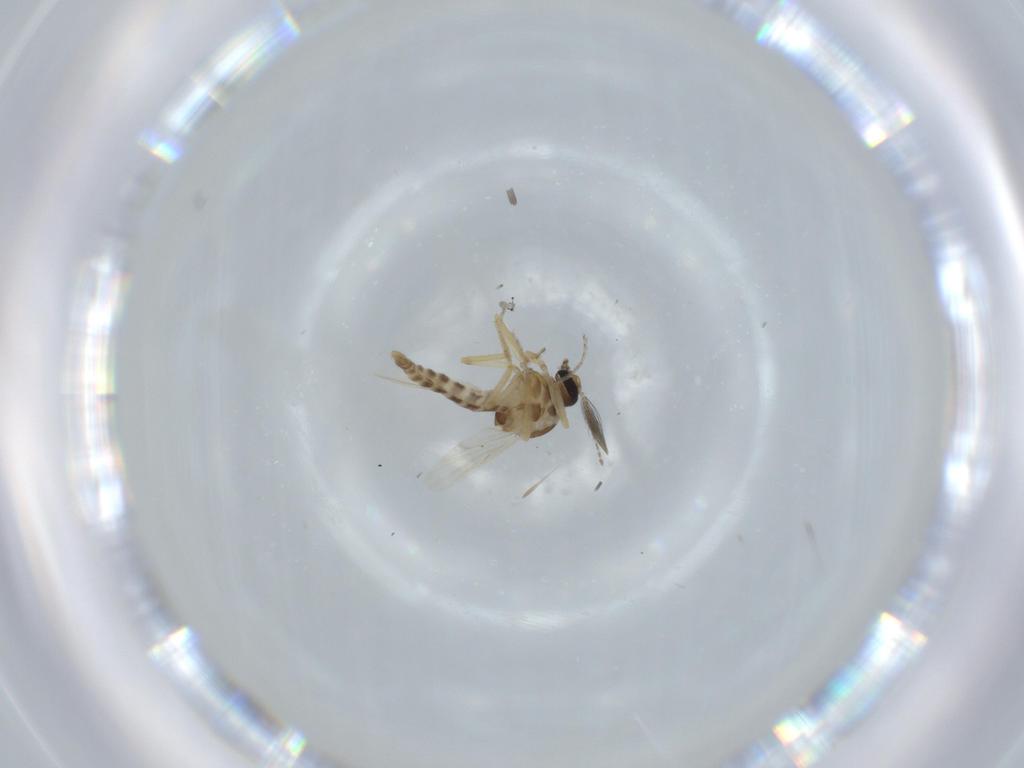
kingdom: Animalia
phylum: Arthropoda
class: Insecta
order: Diptera
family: Ceratopogonidae
